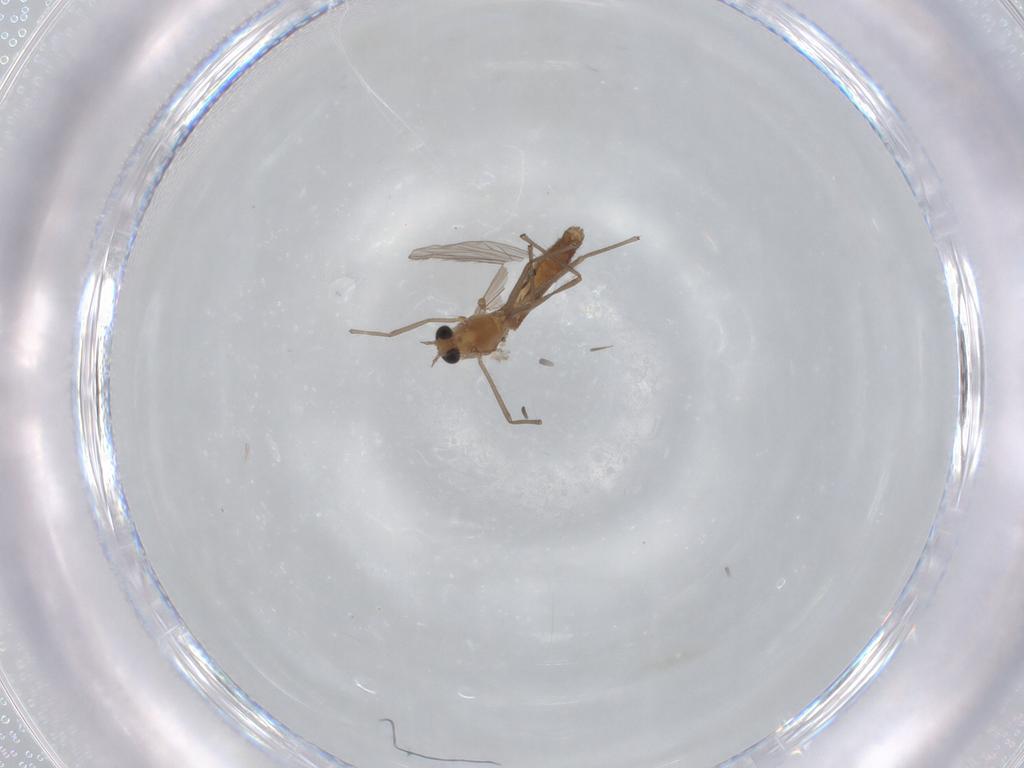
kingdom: Animalia
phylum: Arthropoda
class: Insecta
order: Diptera
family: Chironomidae
